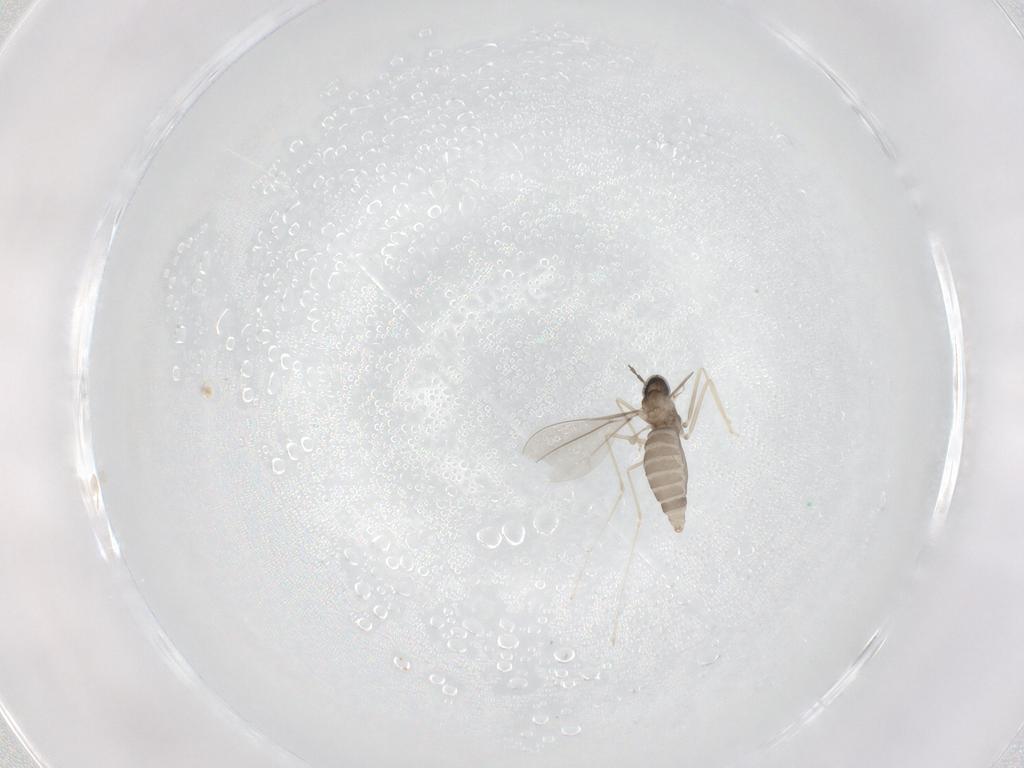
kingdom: Animalia
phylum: Arthropoda
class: Insecta
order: Diptera
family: Cecidomyiidae
